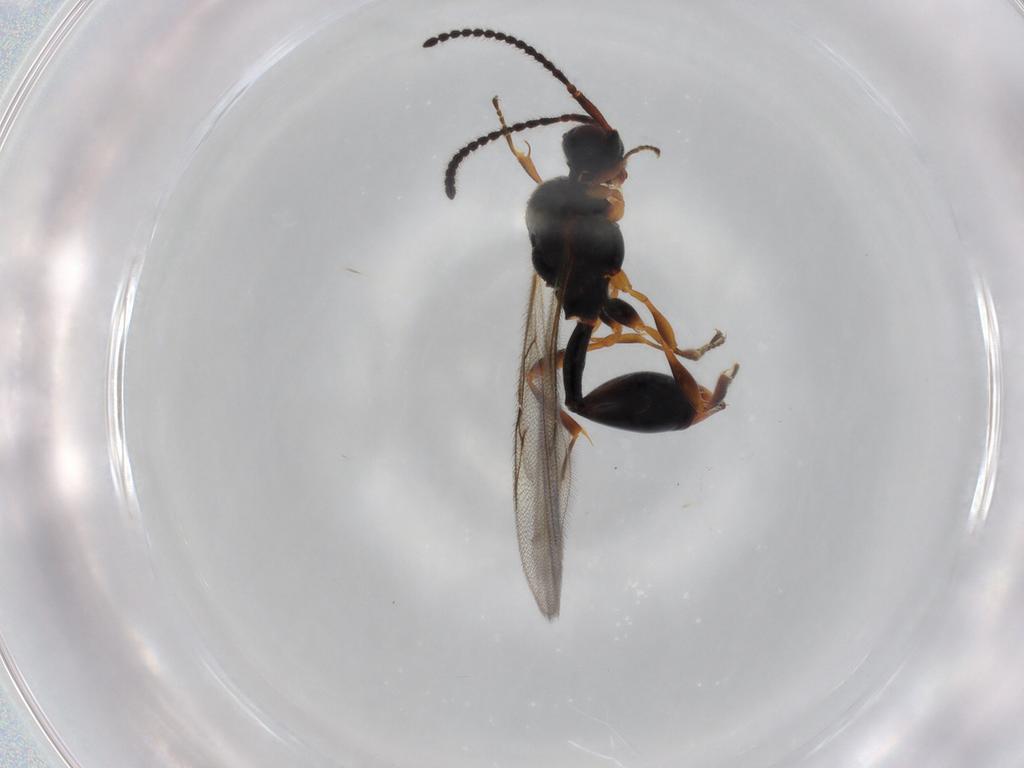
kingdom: Animalia
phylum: Arthropoda
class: Insecta
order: Hymenoptera
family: Diapriidae
